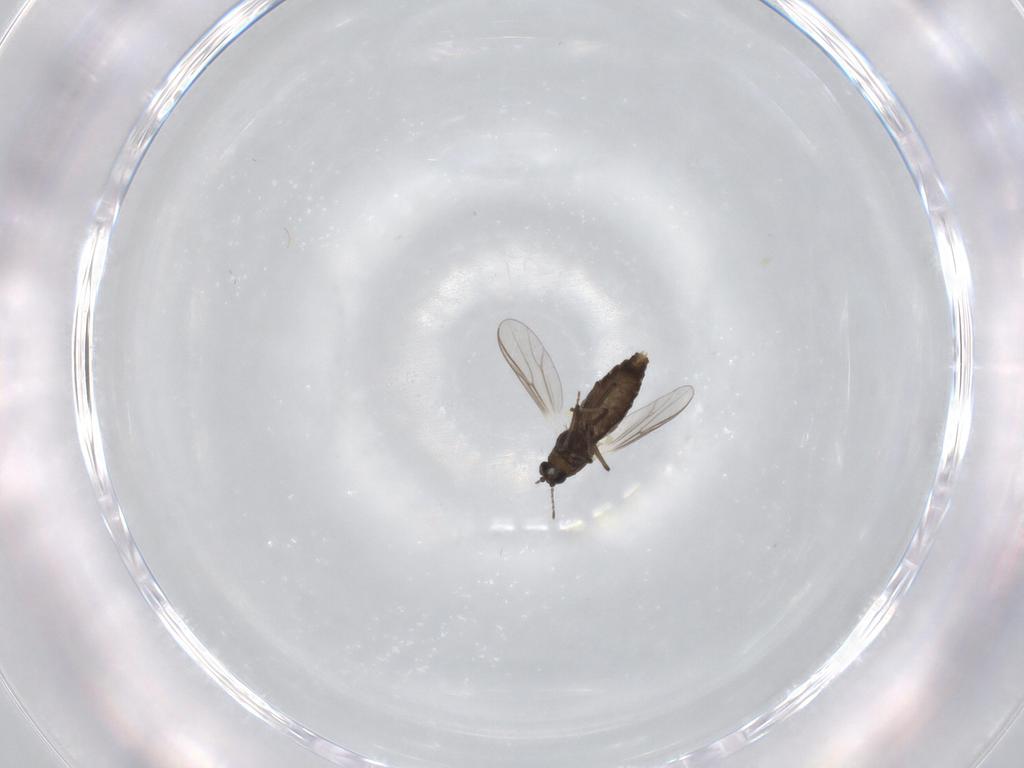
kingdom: Animalia
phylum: Arthropoda
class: Insecta
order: Diptera
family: Chironomidae
